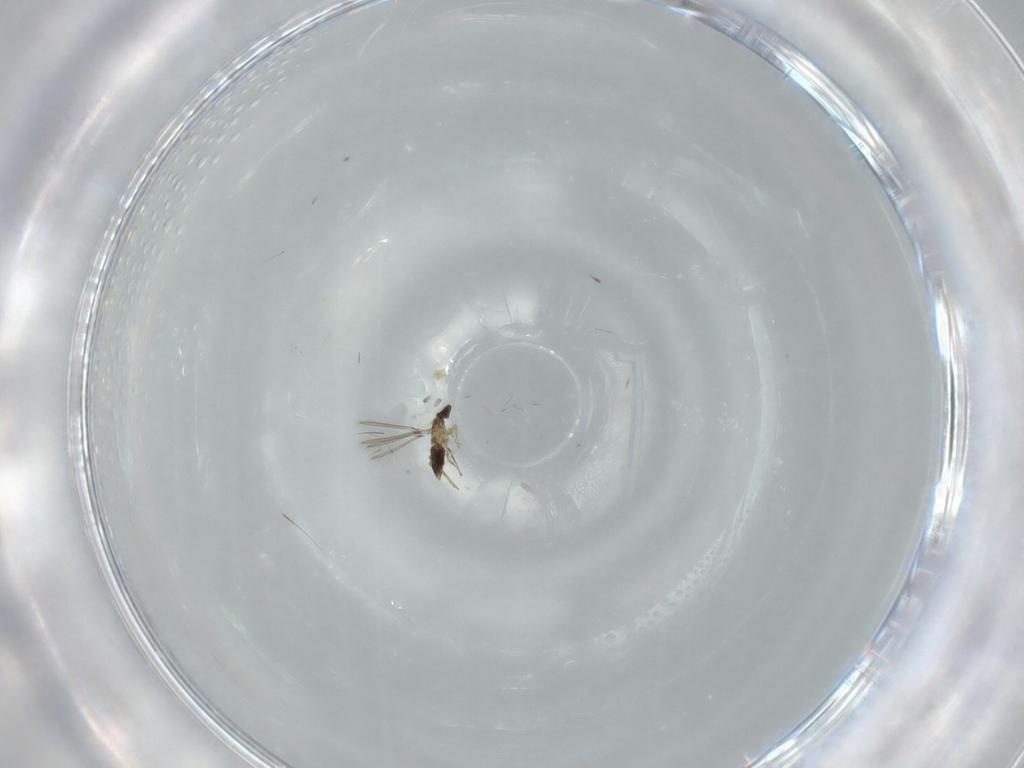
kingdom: Animalia
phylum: Arthropoda
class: Insecta
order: Hymenoptera
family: Mymaridae
